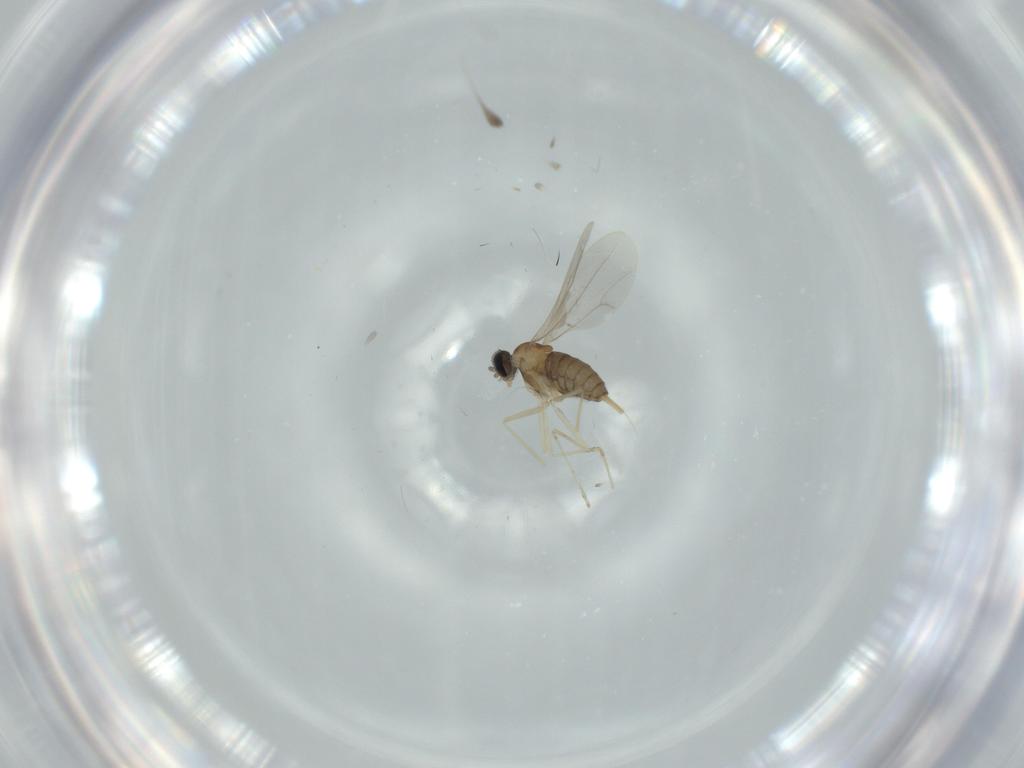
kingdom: Animalia
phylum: Arthropoda
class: Insecta
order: Diptera
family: Cecidomyiidae
